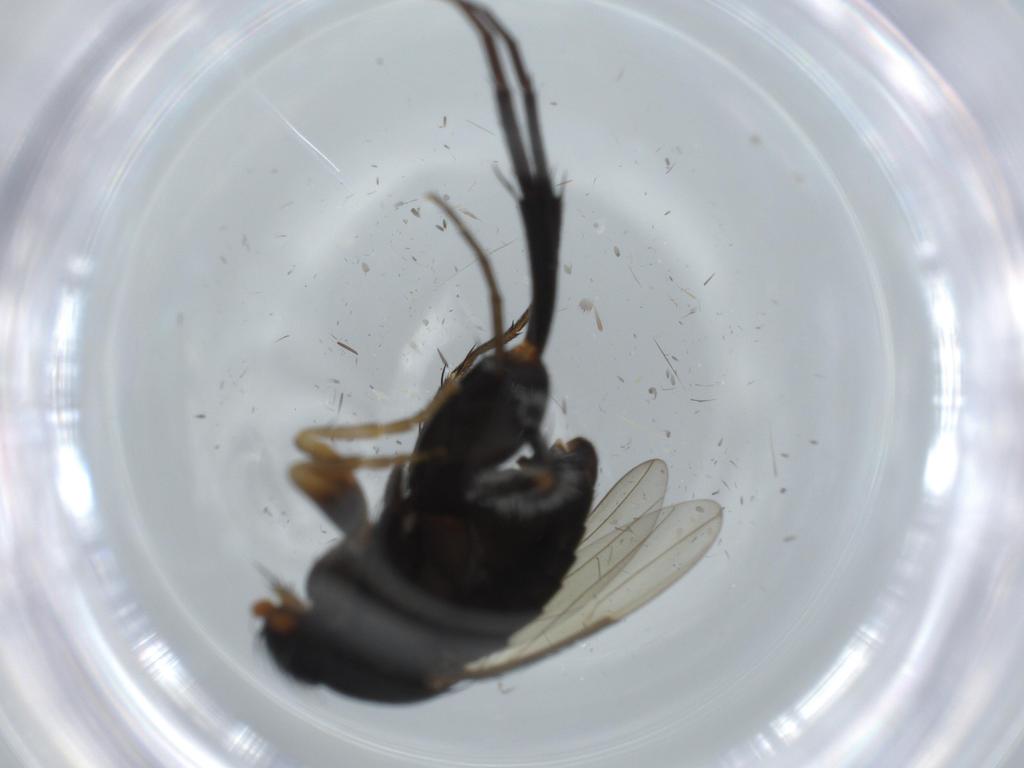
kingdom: Animalia
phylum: Arthropoda
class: Insecta
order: Diptera
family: Phoridae
